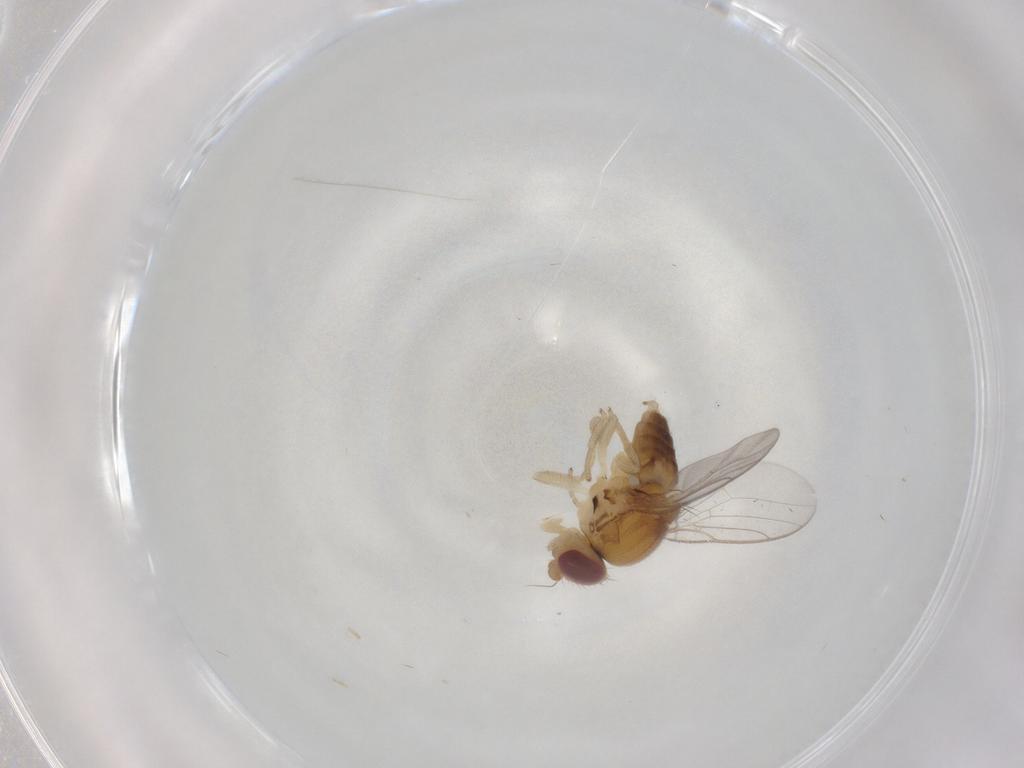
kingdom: Animalia
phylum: Arthropoda
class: Insecta
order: Diptera
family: Chloropidae
